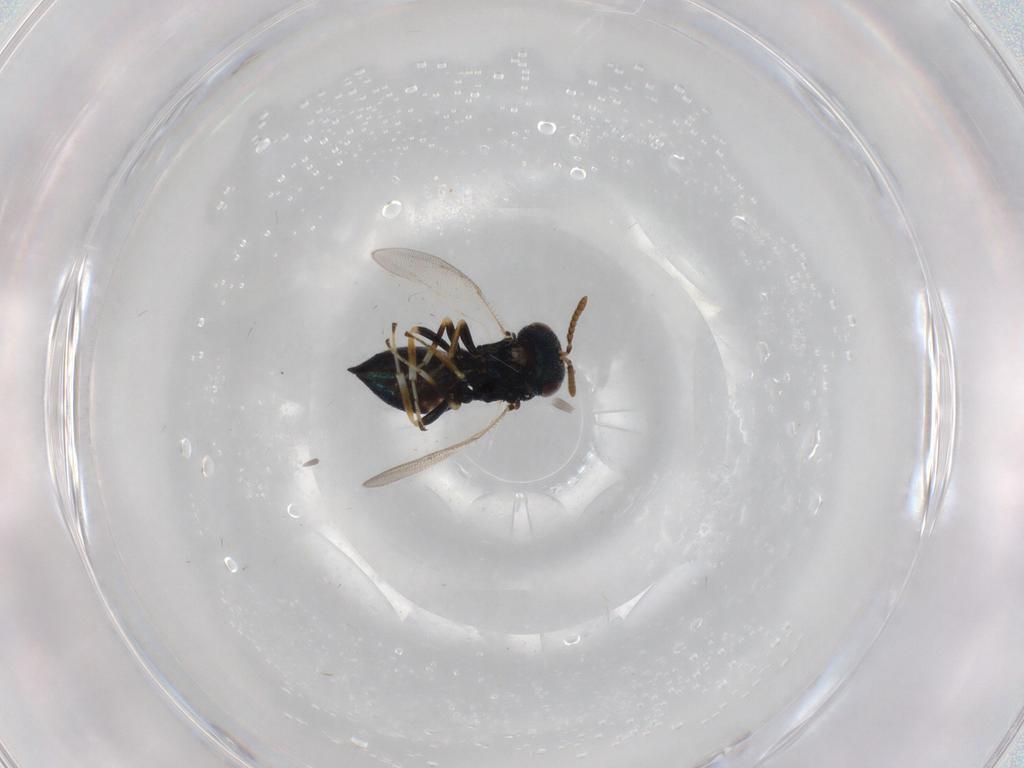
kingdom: Animalia
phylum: Arthropoda
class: Insecta
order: Hymenoptera
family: Pteromalidae
